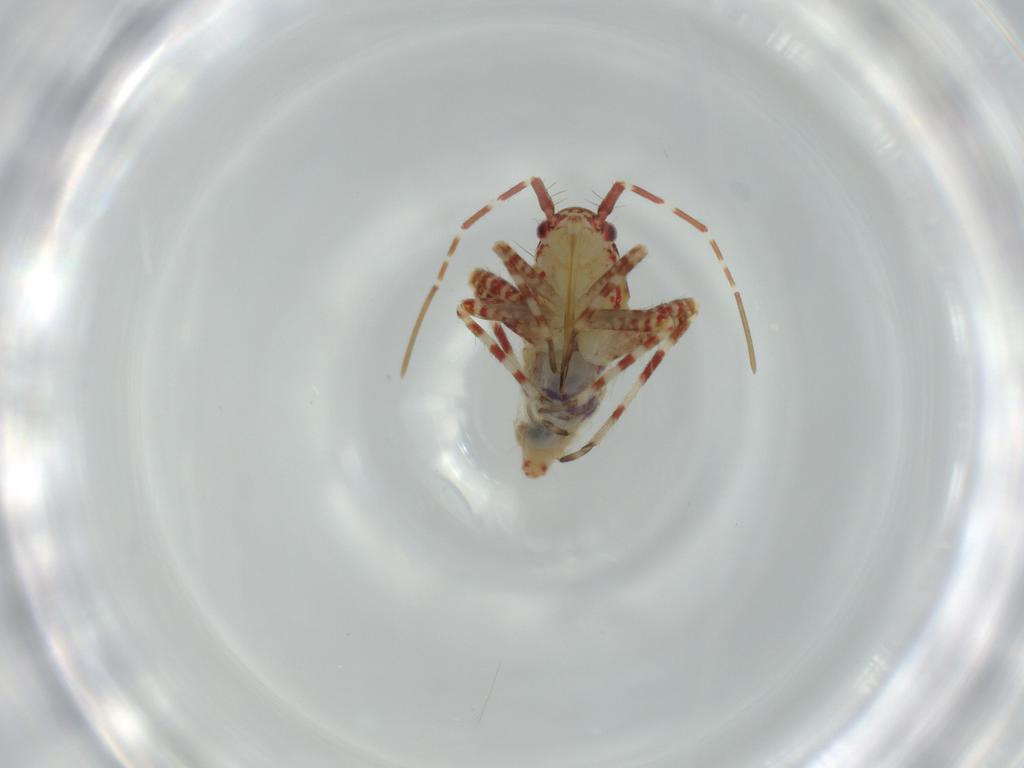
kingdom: Animalia
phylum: Arthropoda
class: Insecta
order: Hemiptera
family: Miridae
